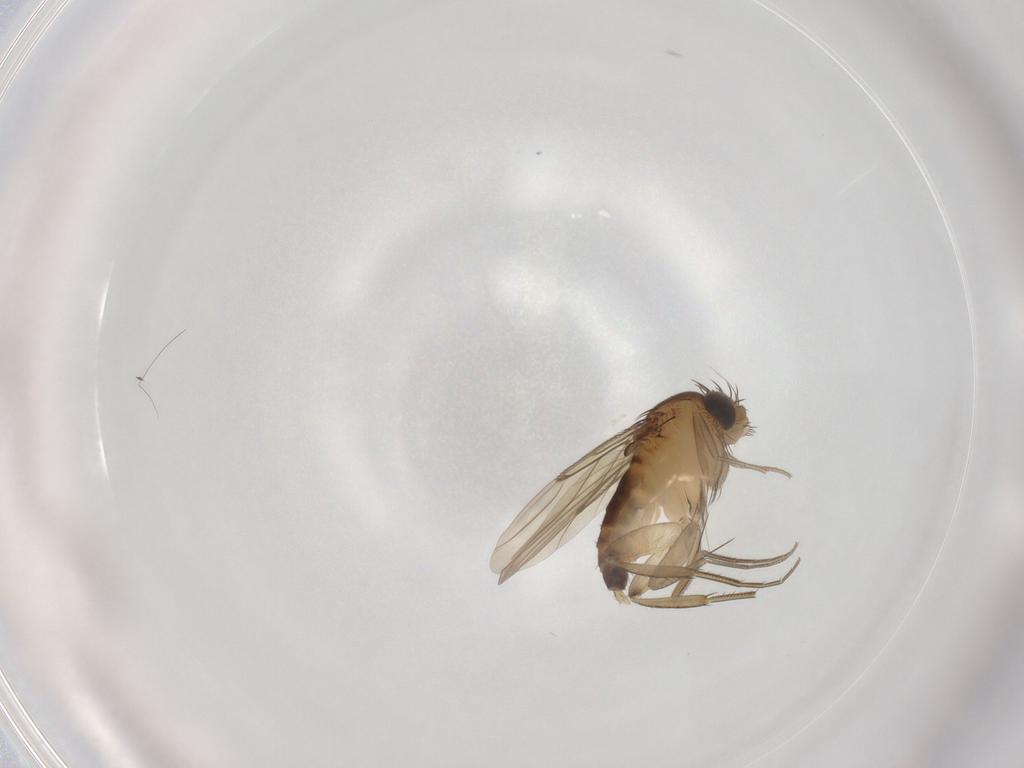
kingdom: Animalia
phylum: Arthropoda
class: Insecta
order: Diptera
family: Phoridae
